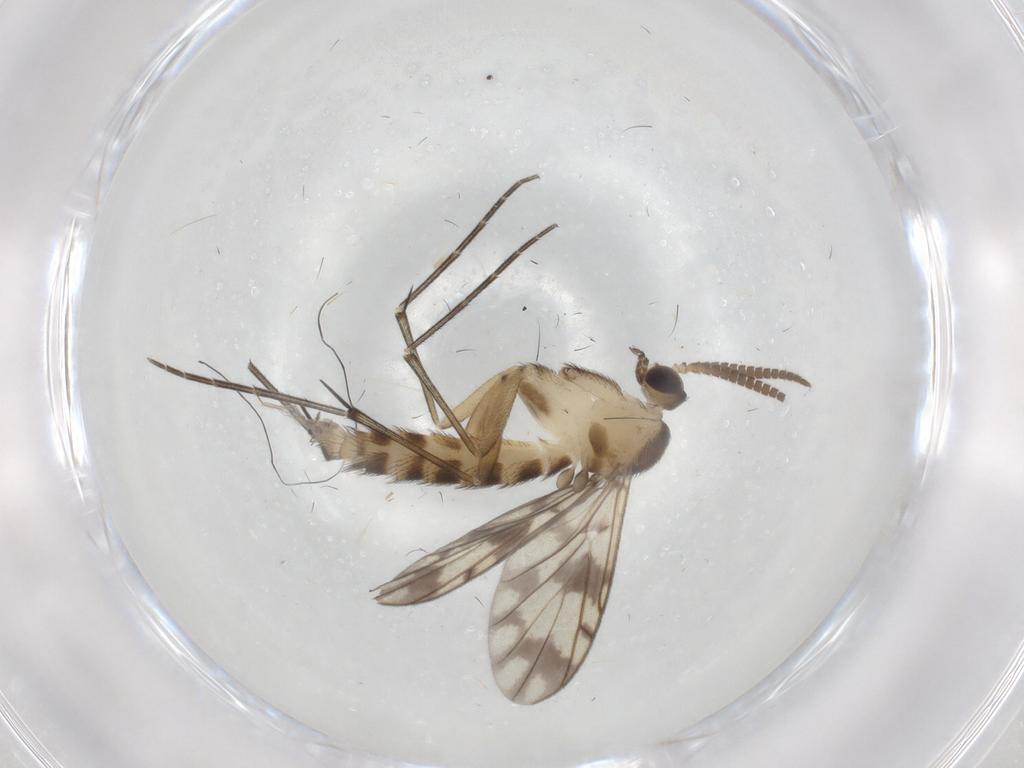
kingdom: Animalia
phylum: Arthropoda
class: Insecta
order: Diptera
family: Keroplatidae
